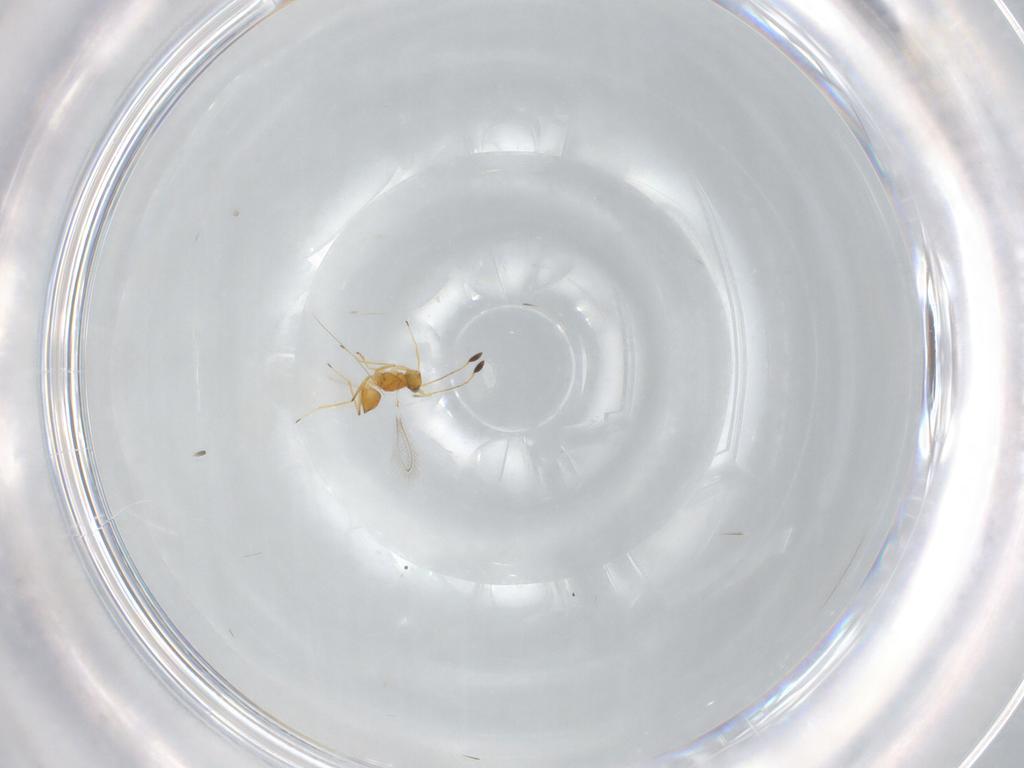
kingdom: Animalia
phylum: Arthropoda
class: Insecta
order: Hymenoptera
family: Mymaridae
